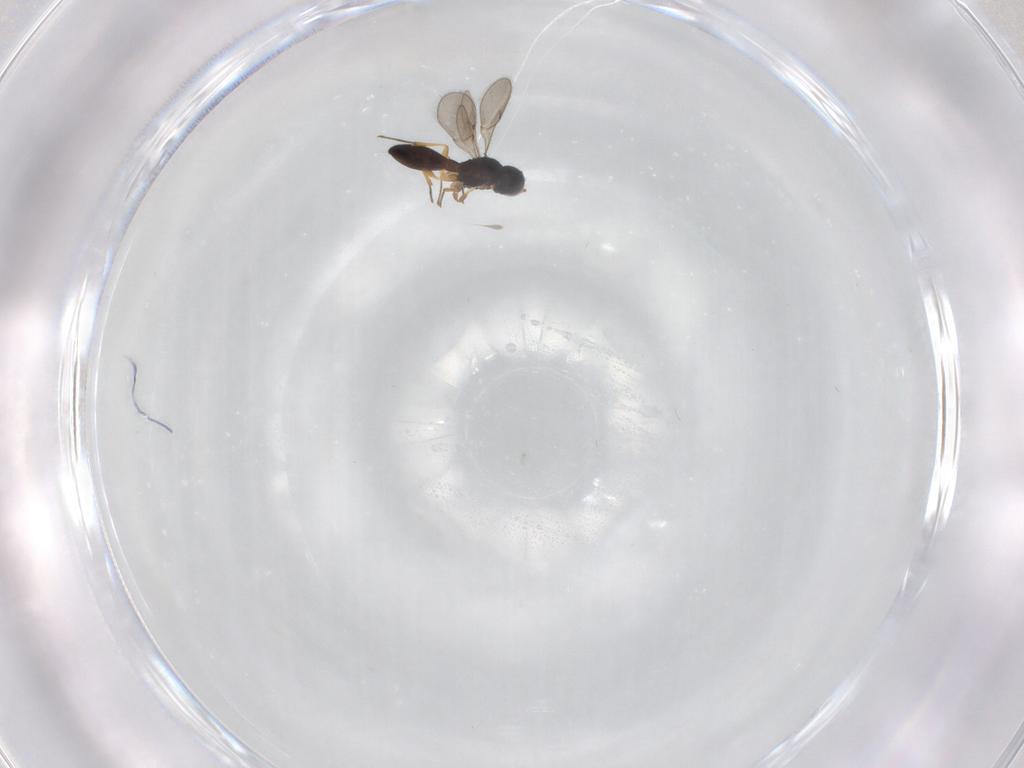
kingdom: Animalia
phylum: Arthropoda
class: Insecta
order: Hymenoptera
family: Scelionidae
